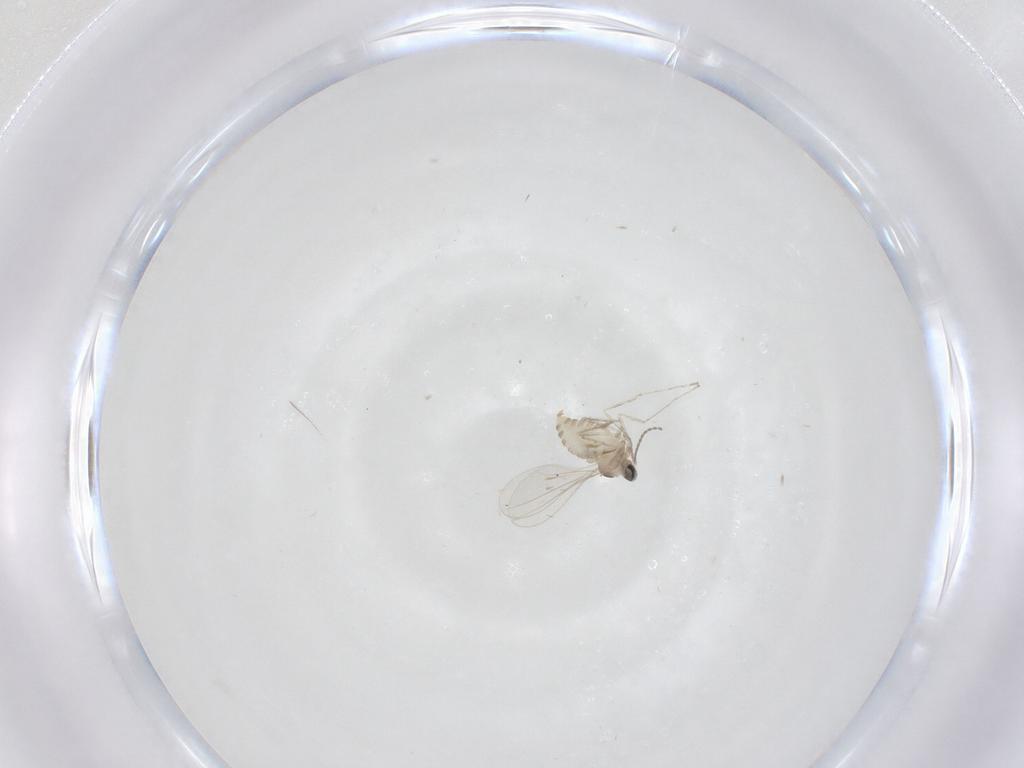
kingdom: Animalia
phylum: Arthropoda
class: Insecta
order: Diptera
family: Cecidomyiidae
